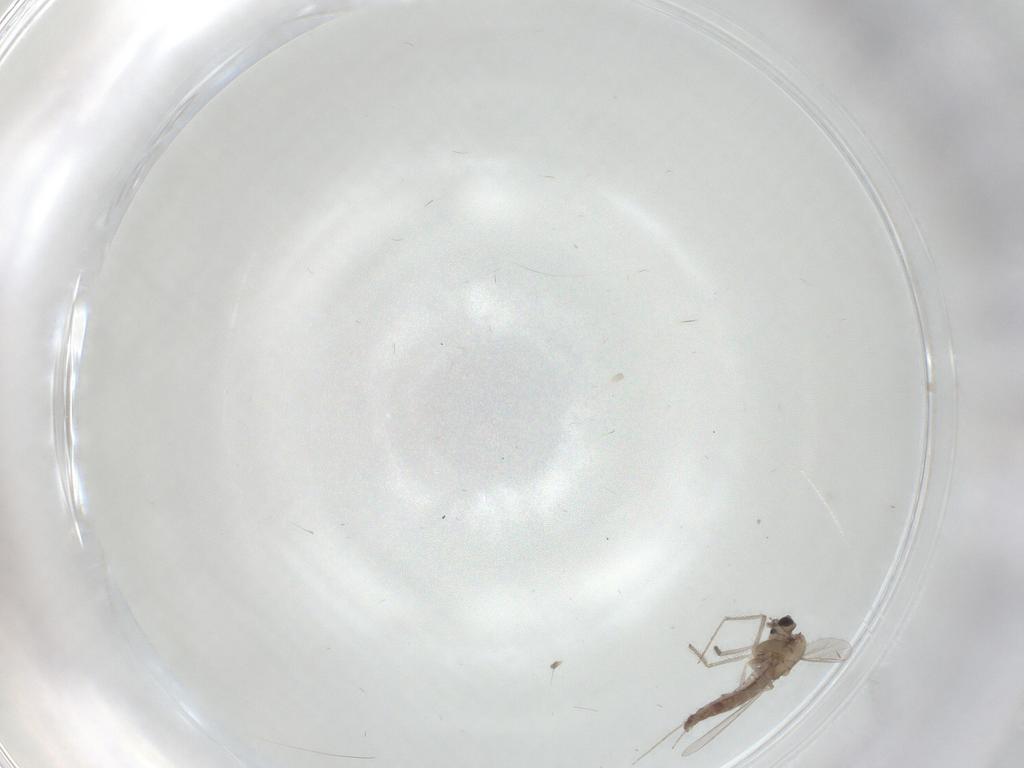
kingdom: Animalia
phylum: Arthropoda
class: Insecta
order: Diptera
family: Chironomidae
